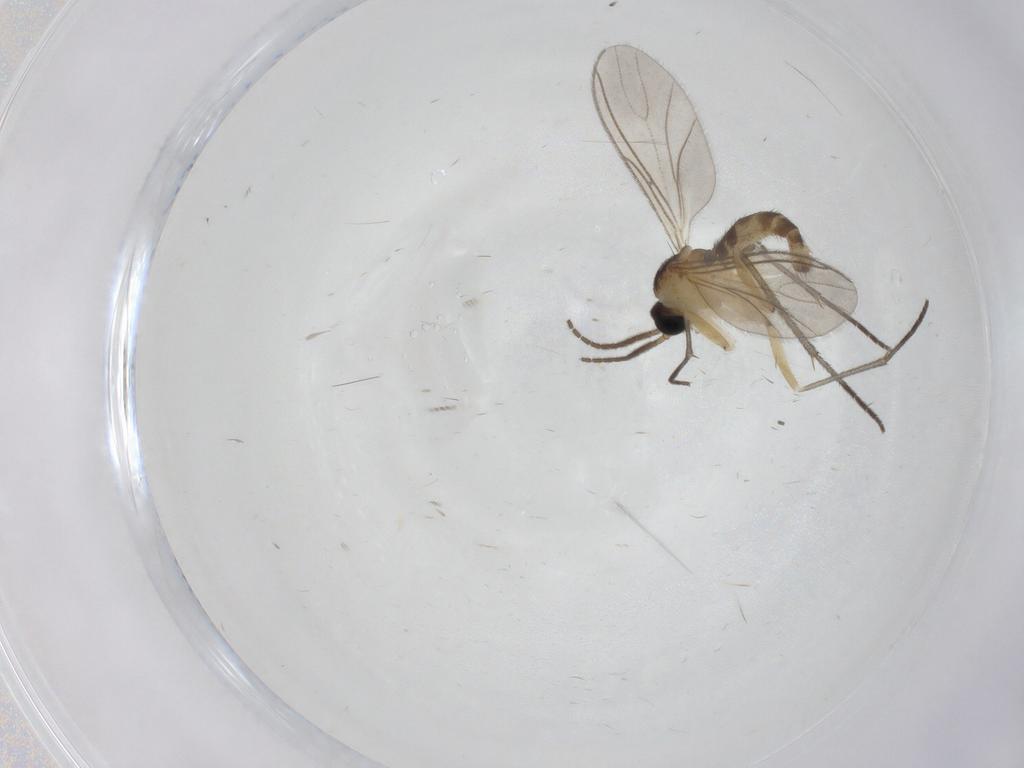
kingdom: Animalia
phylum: Arthropoda
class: Insecta
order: Diptera
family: Sciaridae
